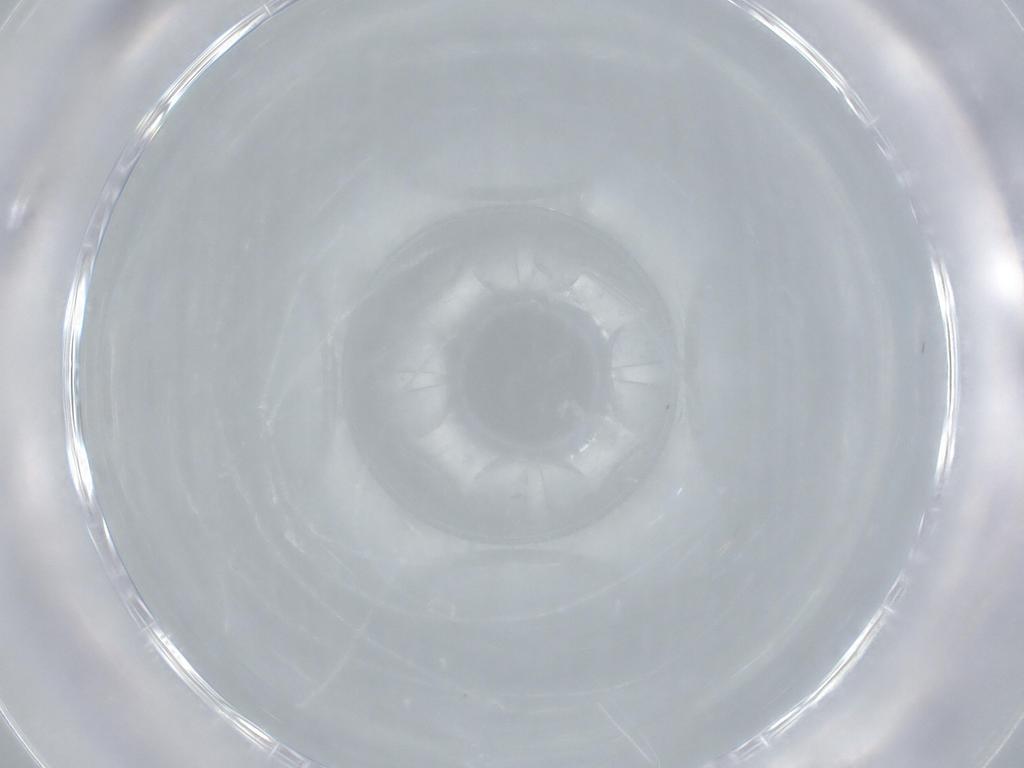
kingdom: Animalia
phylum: Arthropoda
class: Insecta
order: Diptera
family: Cecidomyiidae
